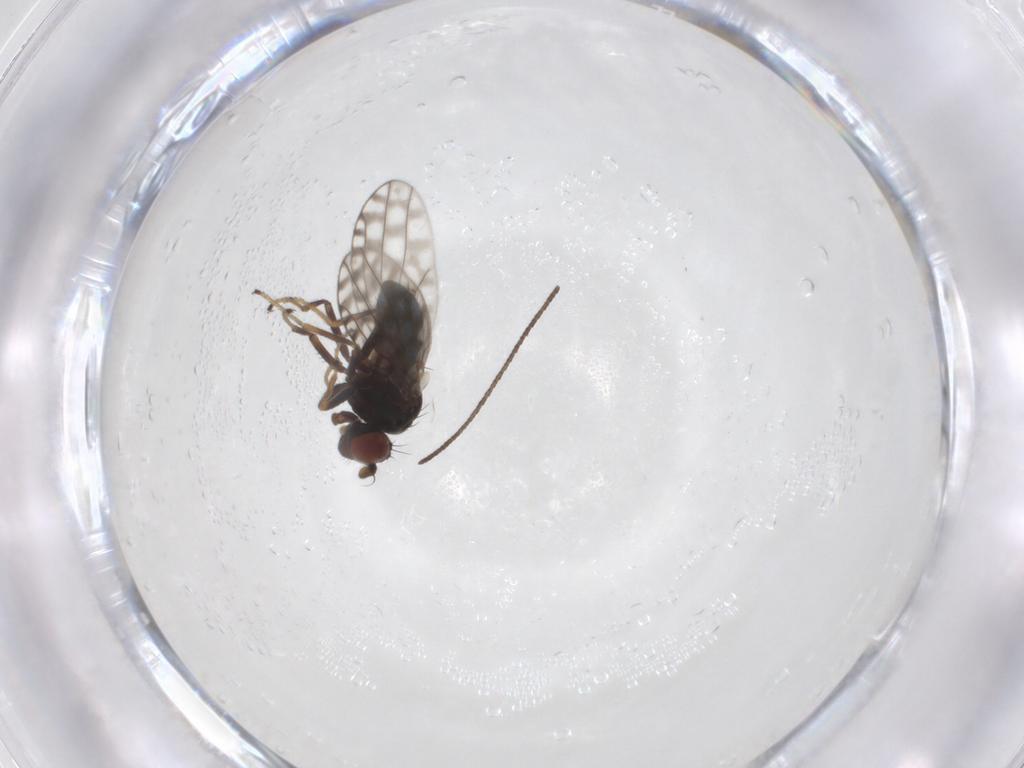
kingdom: Animalia
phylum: Arthropoda
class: Insecta
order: Diptera
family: Ephydridae
